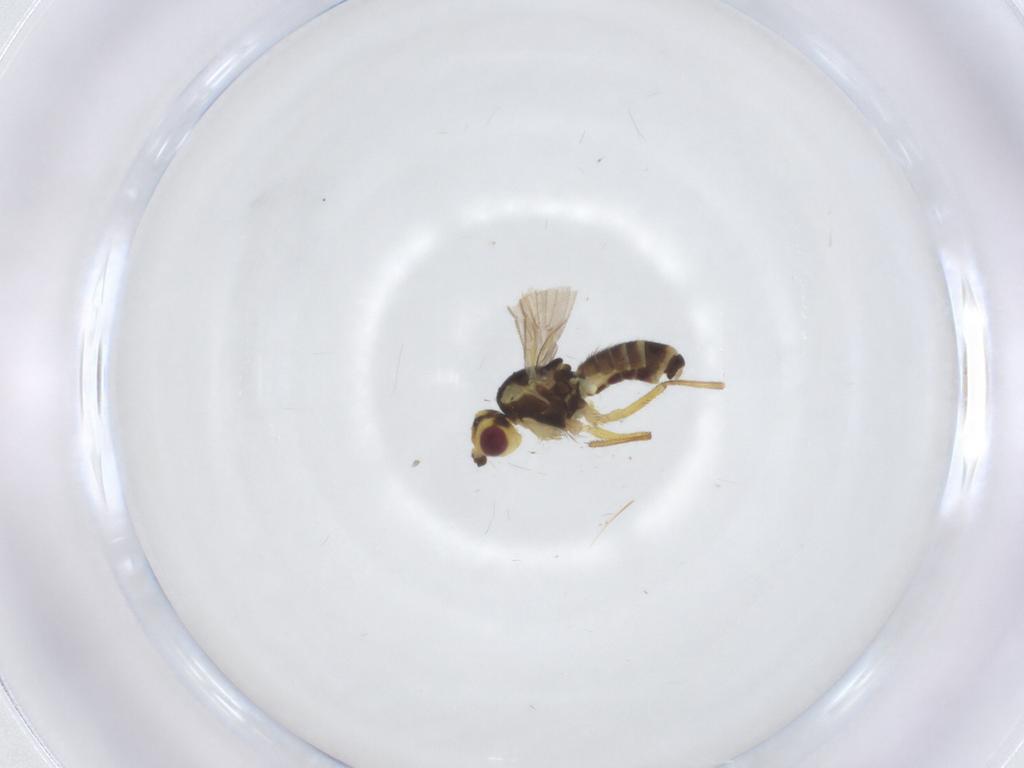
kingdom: Animalia
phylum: Arthropoda
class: Insecta
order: Diptera
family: Agromyzidae
